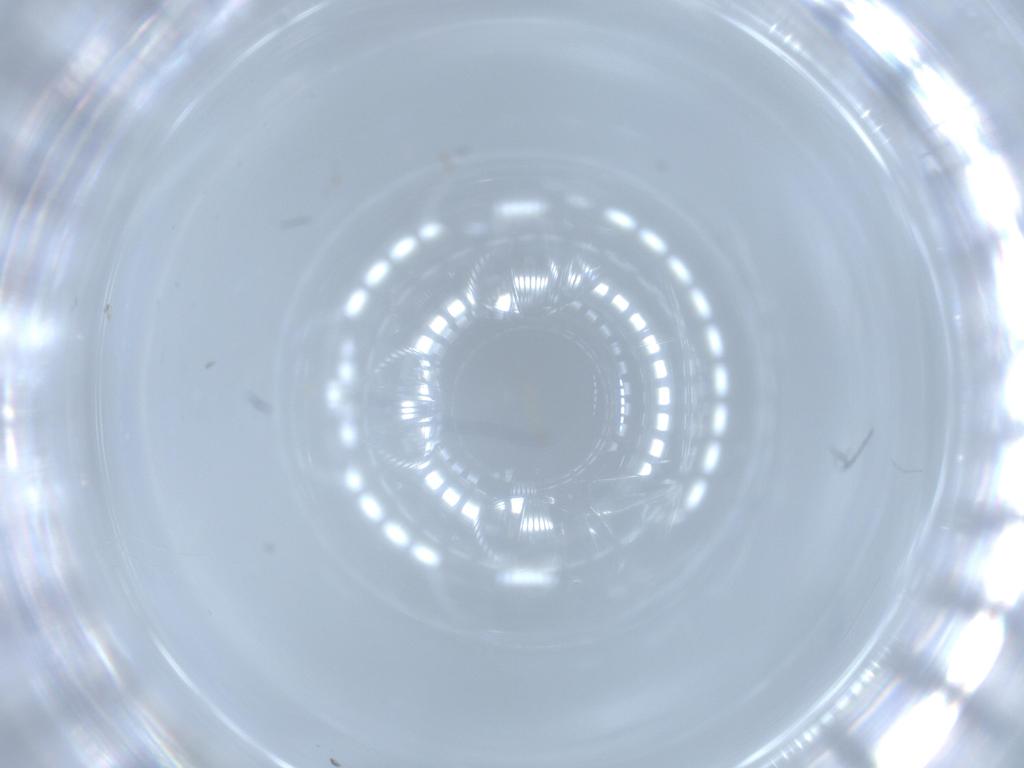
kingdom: Animalia
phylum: Arthropoda
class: Insecta
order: Diptera
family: Cecidomyiidae
